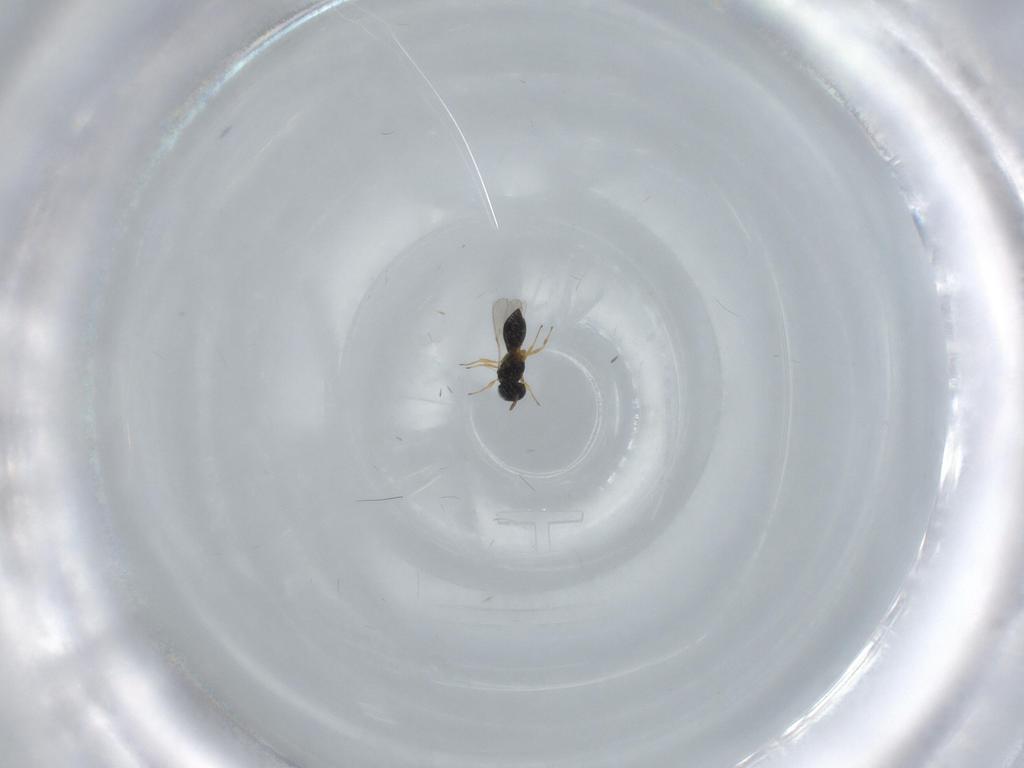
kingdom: Animalia
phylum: Arthropoda
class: Insecta
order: Hymenoptera
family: Scelionidae
